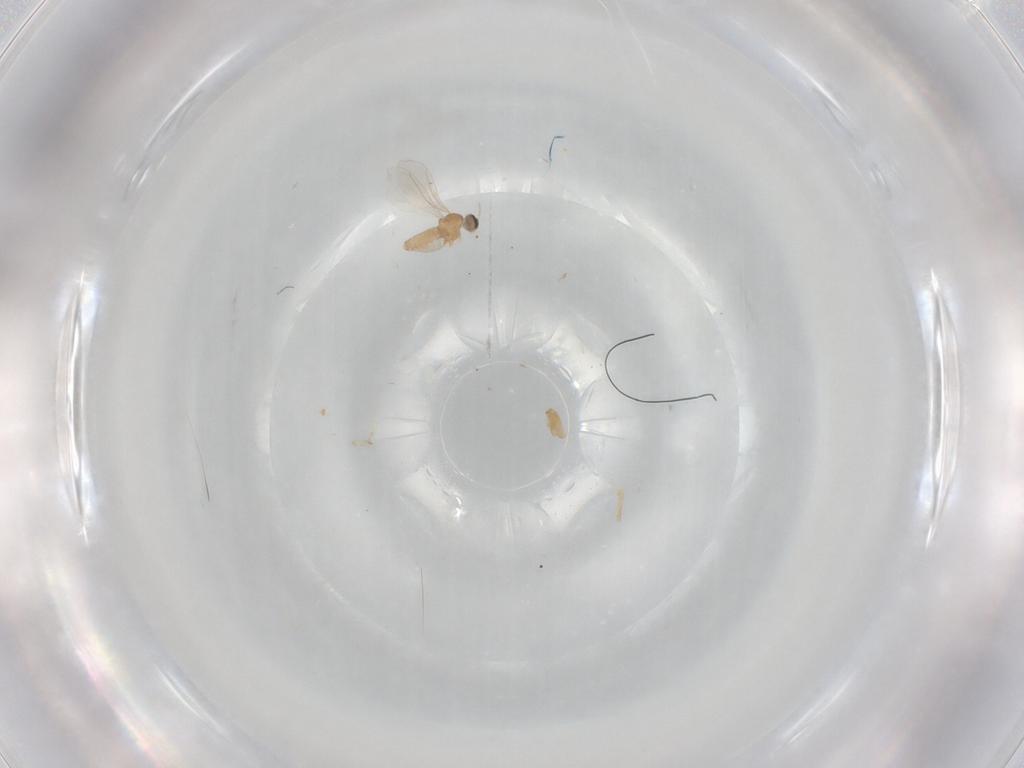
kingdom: Animalia
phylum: Arthropoda
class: Insecta
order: Diptera
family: Cecidomyiidae
